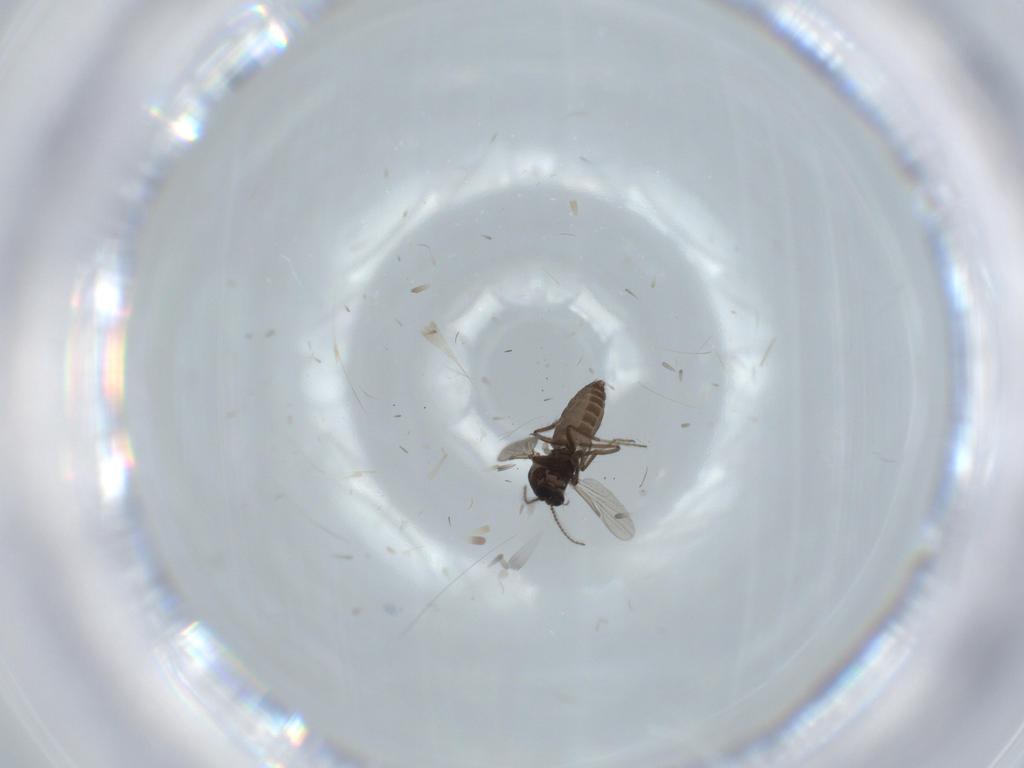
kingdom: Animalia
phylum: Arthropoda
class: Insecta
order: Diptera
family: Ceratopogonidae
